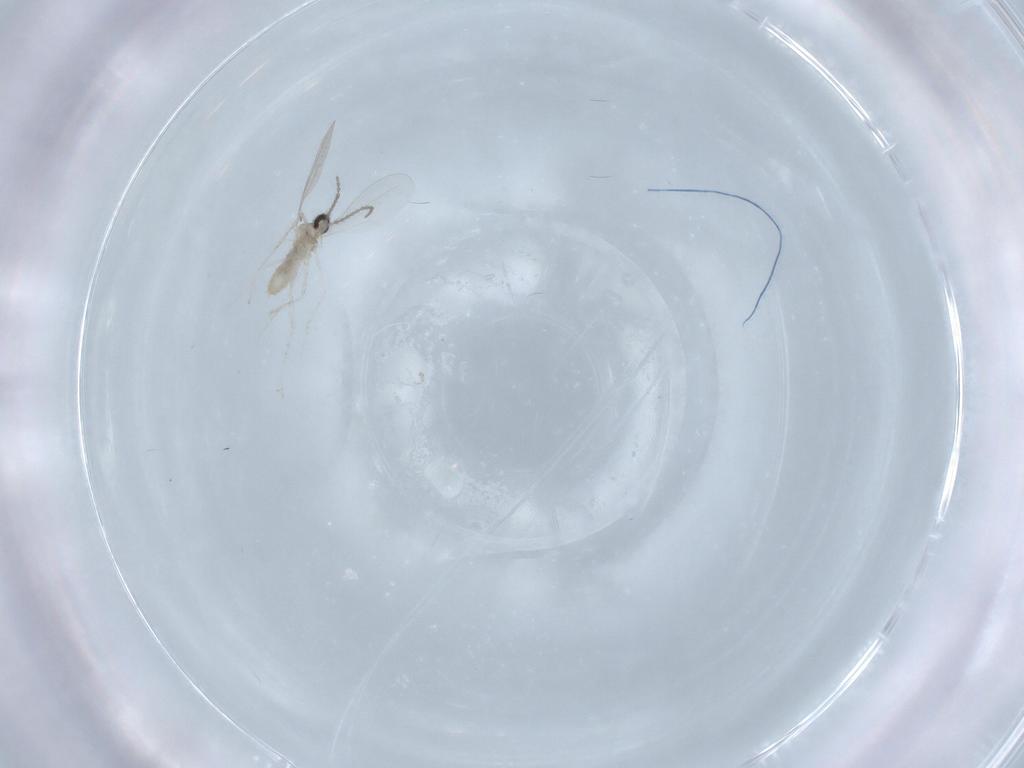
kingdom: Animalia
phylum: Arthropoda
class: Insecta
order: Diptera
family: Cecidomyiidae
